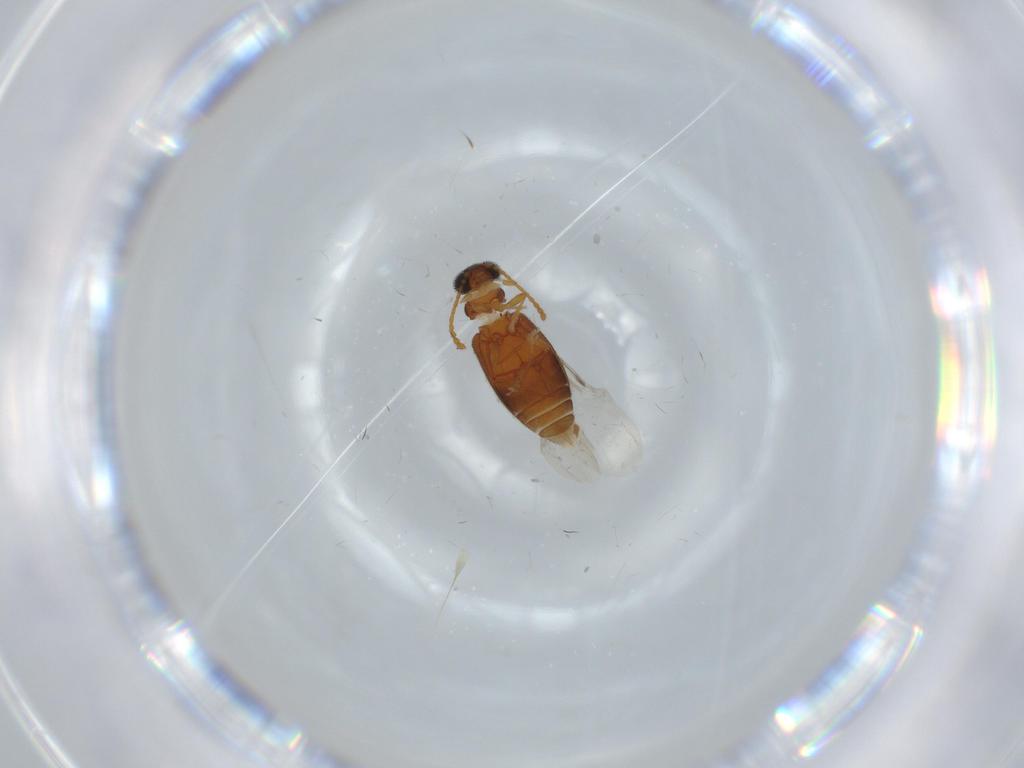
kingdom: Animalia
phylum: Arthropoda
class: Insecta
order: Coleoptera
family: Aderidae
